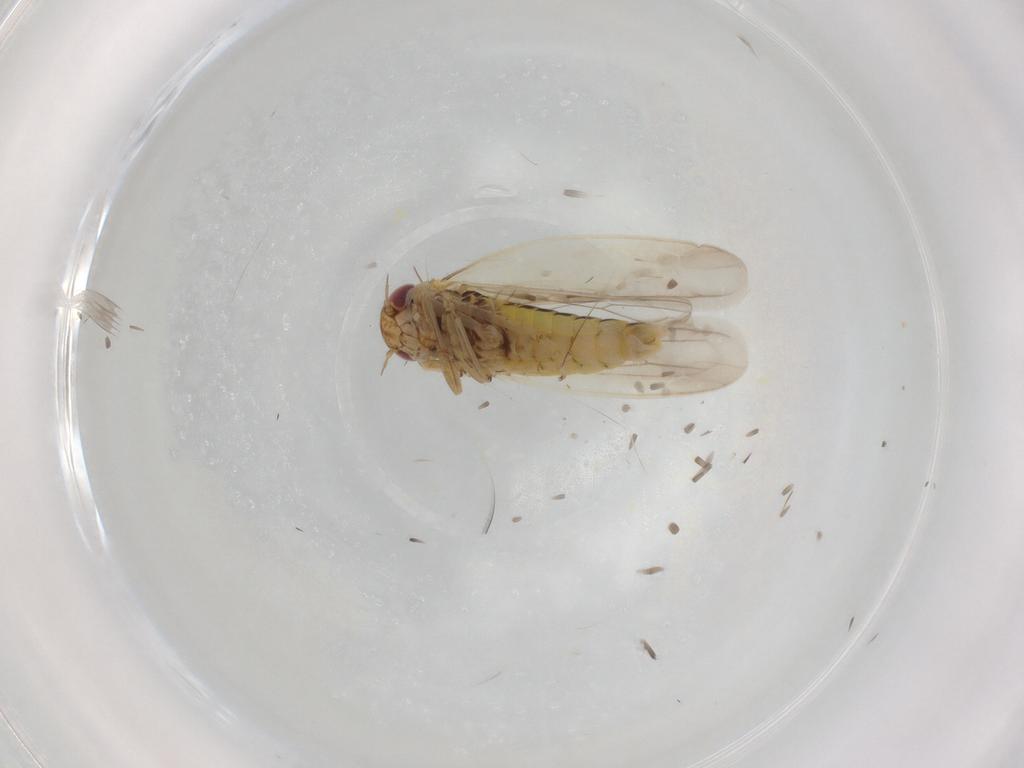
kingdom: Animalia
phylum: Arthropoda
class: Insecta
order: Hemiptera
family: Cicadellidae
